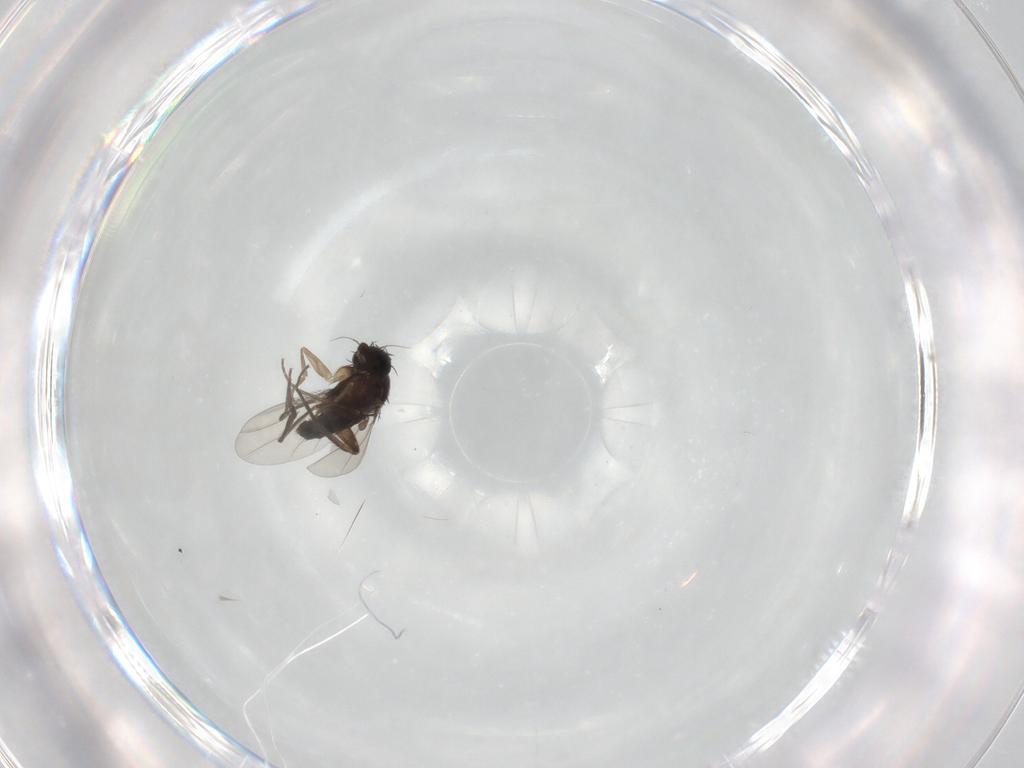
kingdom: Animalia
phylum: Arthropoda
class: Insecta
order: Diptera
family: Phoridae
